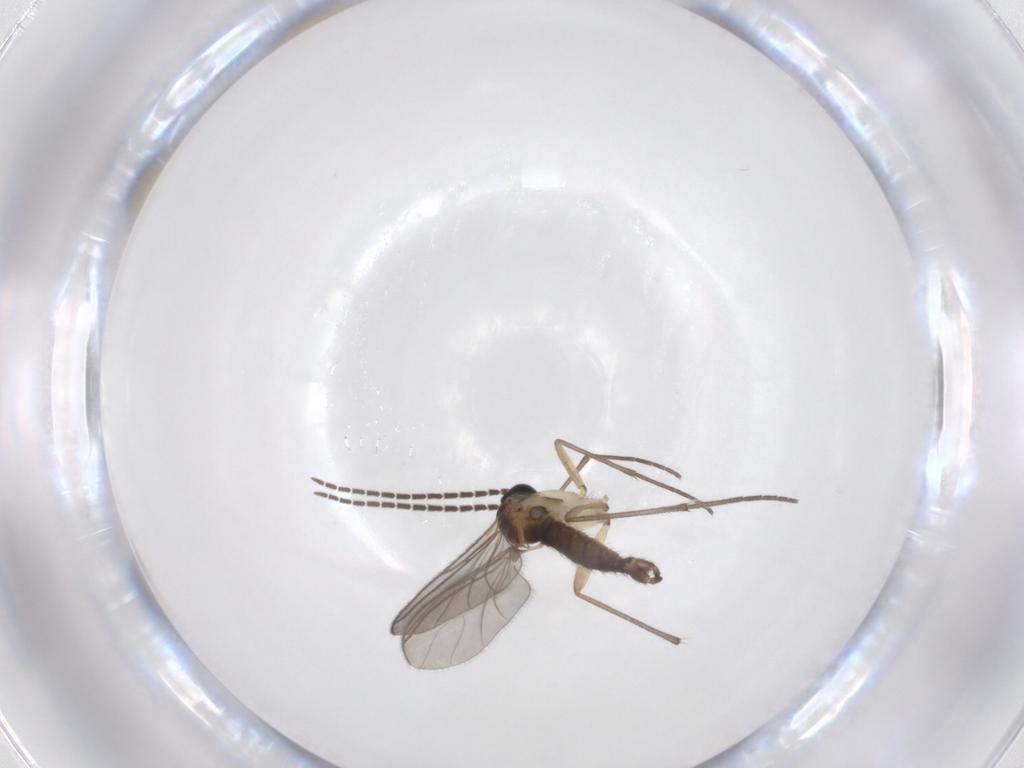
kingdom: Animalia
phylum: Arthropoda
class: Insecta
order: Diptera
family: Sciaridae
